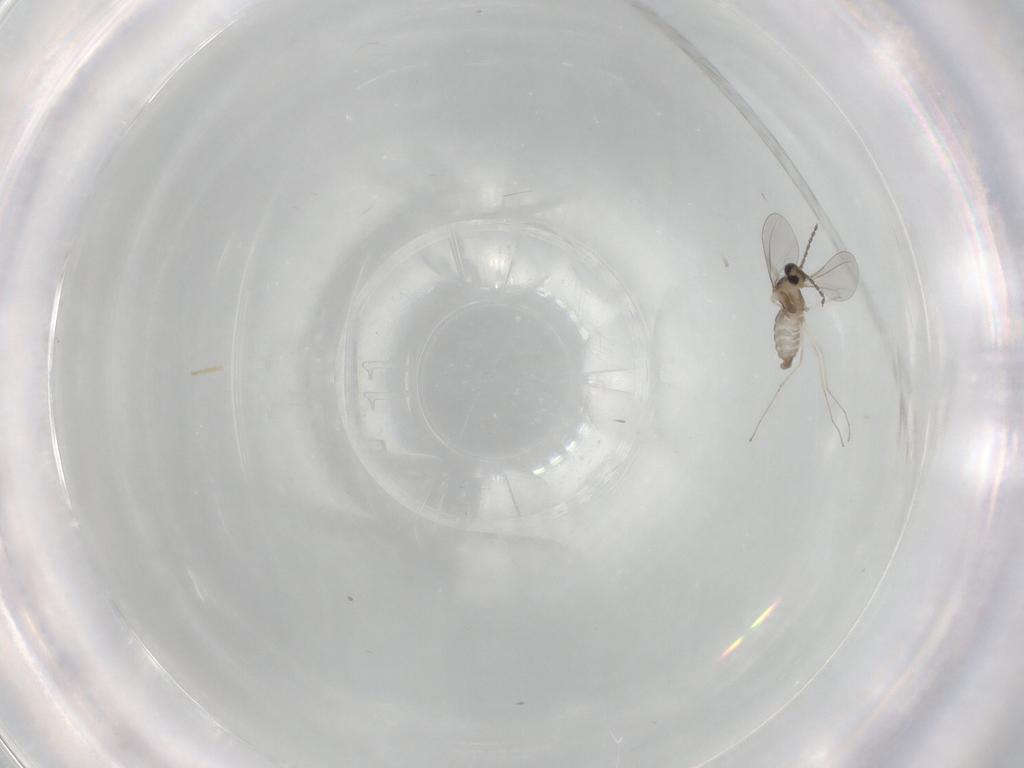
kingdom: Animalia
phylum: Arthropoda
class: Insecta
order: Diptera
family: Cecidomyiidae
